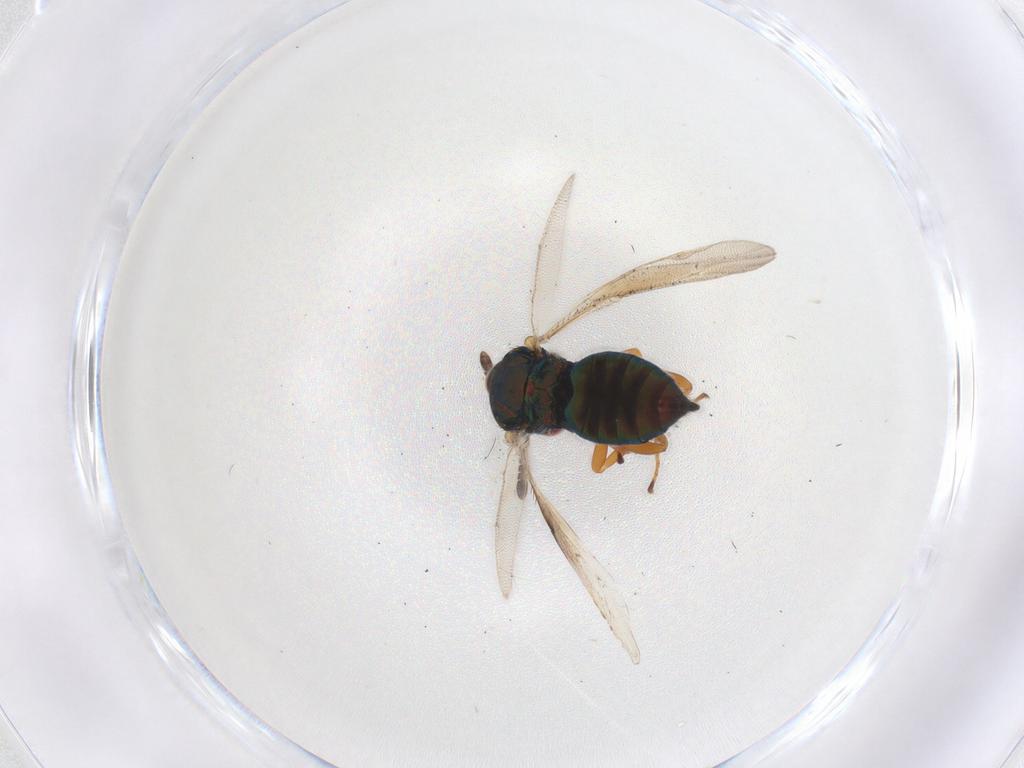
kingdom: Animalia
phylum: Arthropoda
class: Insecta
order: Hymenoptera
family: Pteromalidae
